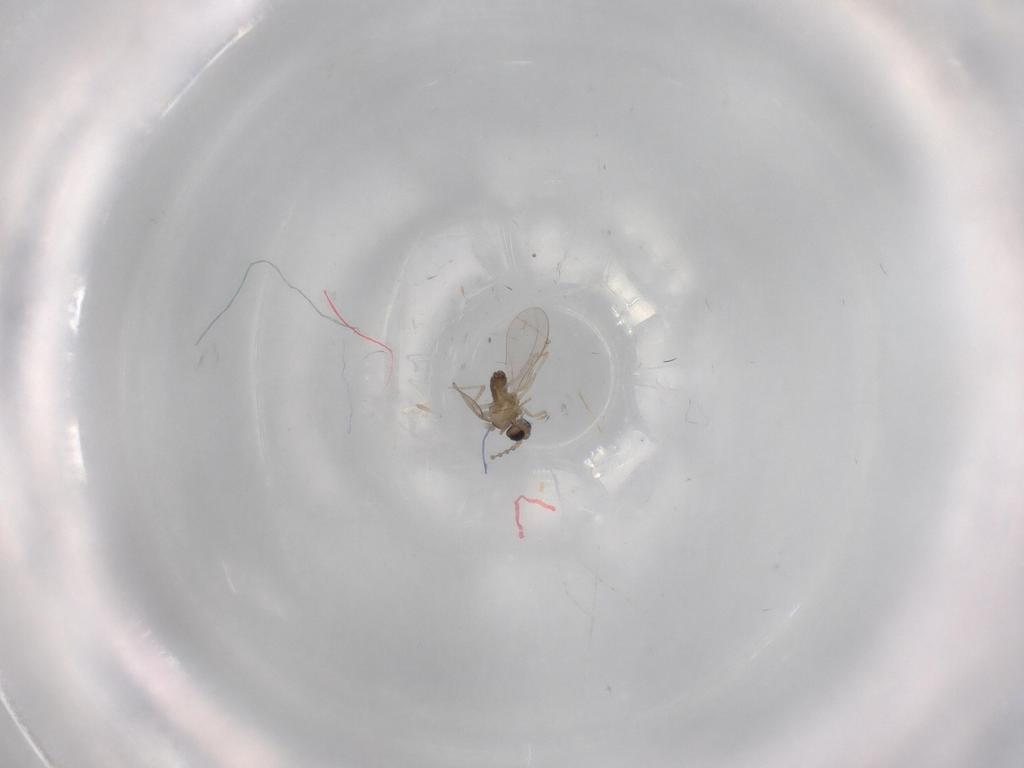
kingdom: Animalia
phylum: Arthropoda
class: Insecta
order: Diptera
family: Cecidomyiidae
